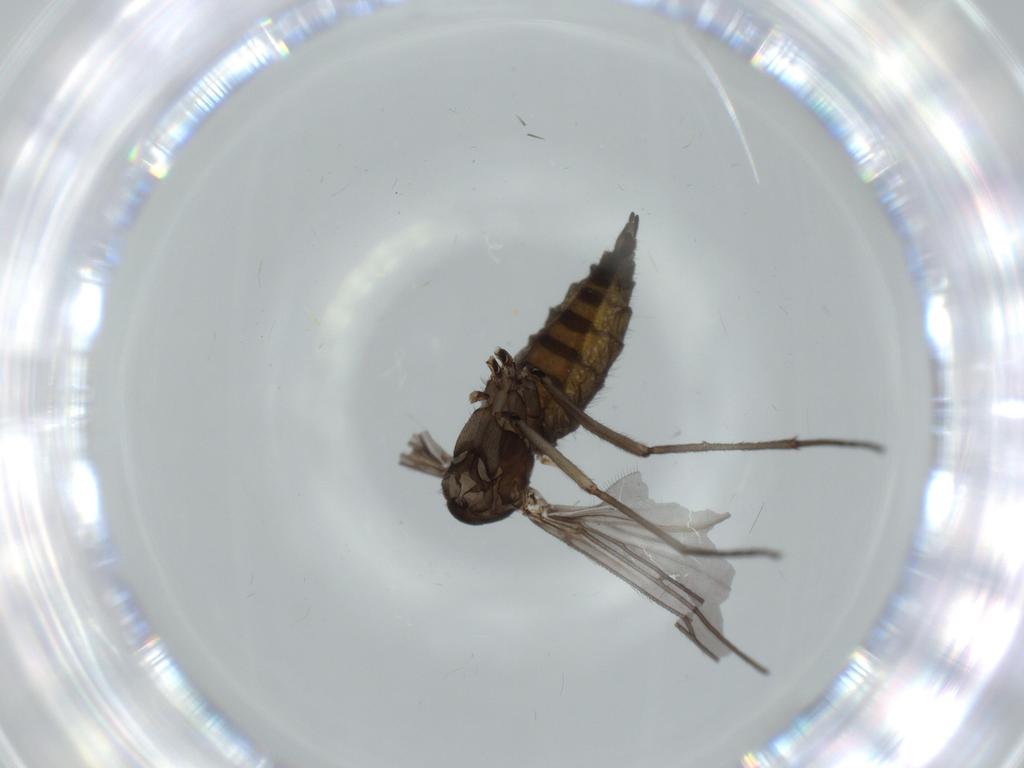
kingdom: Animalia
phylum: Arthropoda
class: Insecta
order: Diptera
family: Sciaridae
